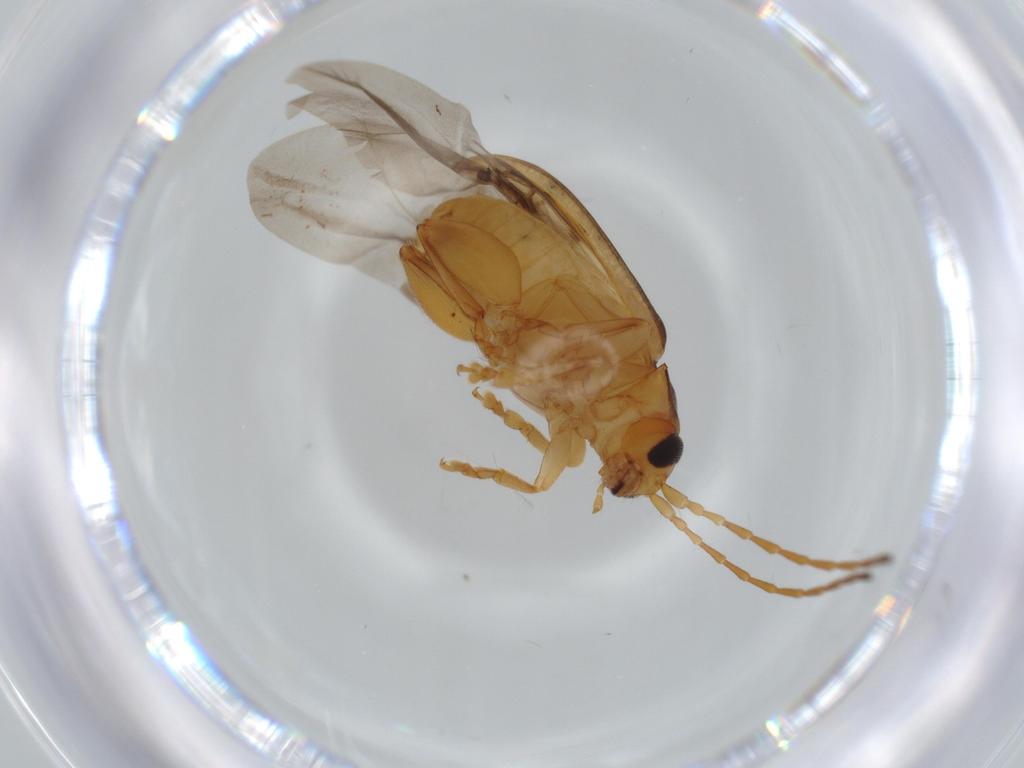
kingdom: Animalia
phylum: Arthropoda
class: Insecta
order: Coleoptera
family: Chrysomelidae
